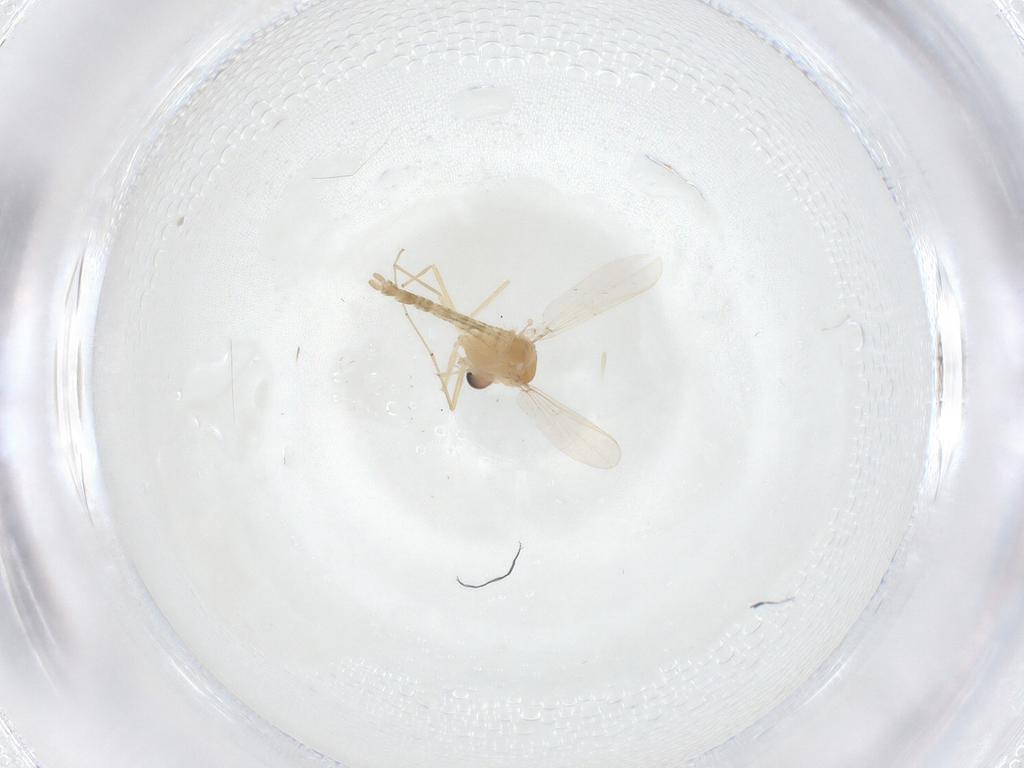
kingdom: Animalia
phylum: Arthropoda
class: Insecta
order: Diptera
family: Chironomidae
